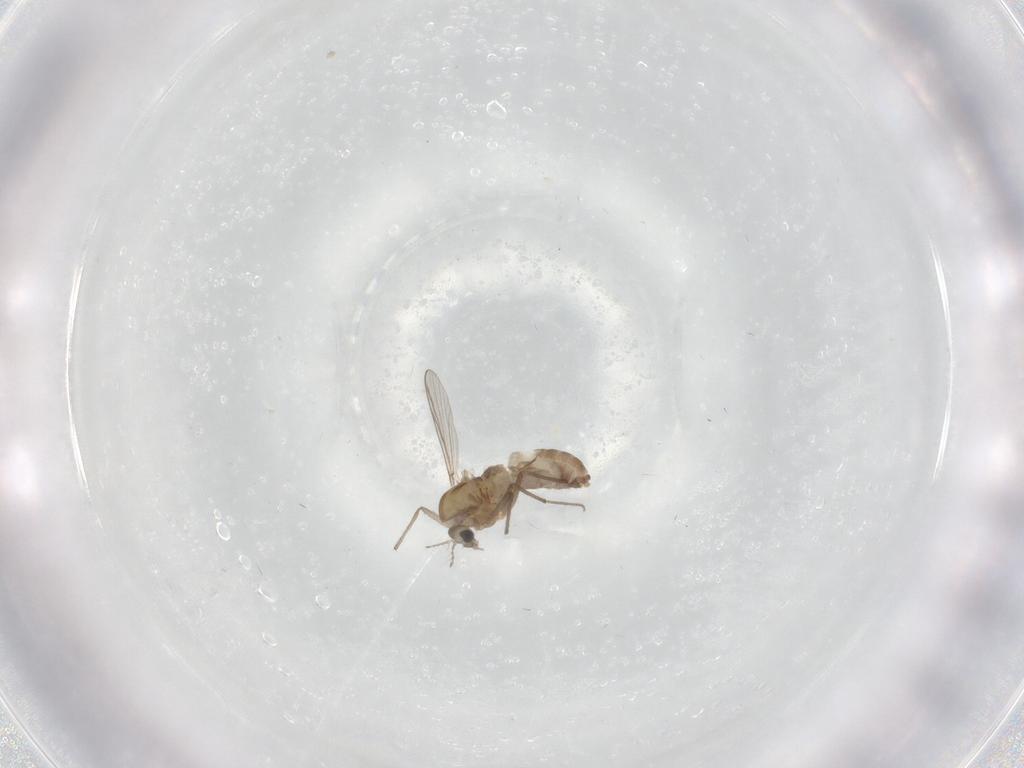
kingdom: Animalia
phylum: Arthropoda
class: Insecta
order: Diptera
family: Chironomidae
